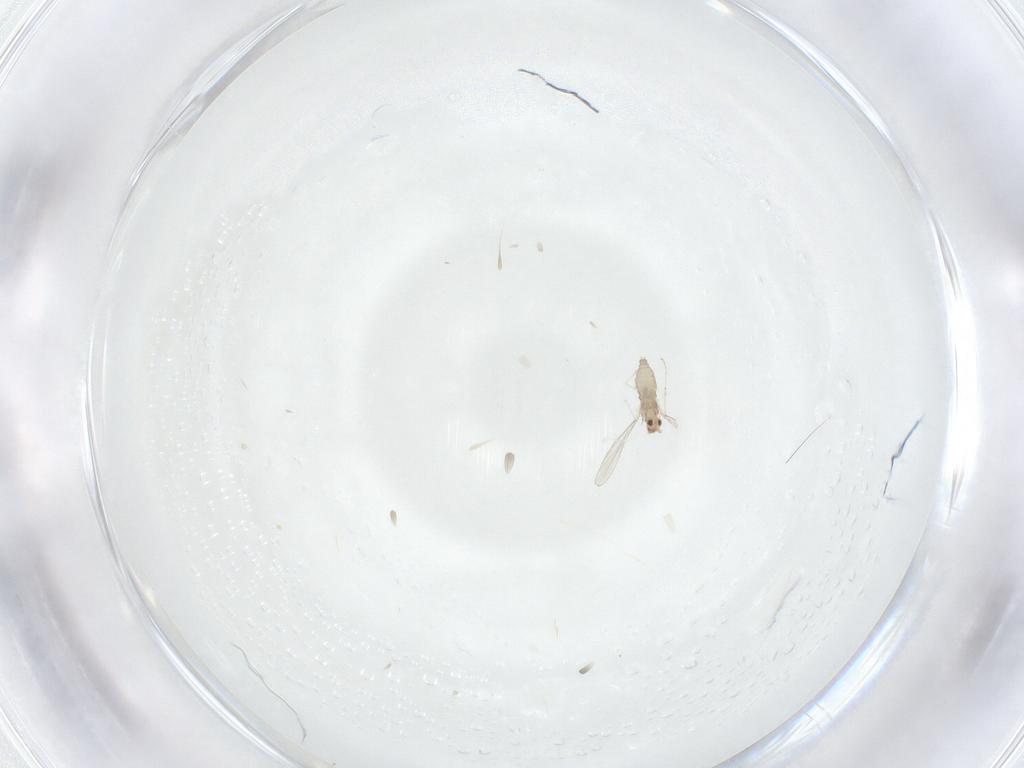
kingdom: Animalia
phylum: Arthropoda
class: Insecta
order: Diptera
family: Cecidomyiidae
